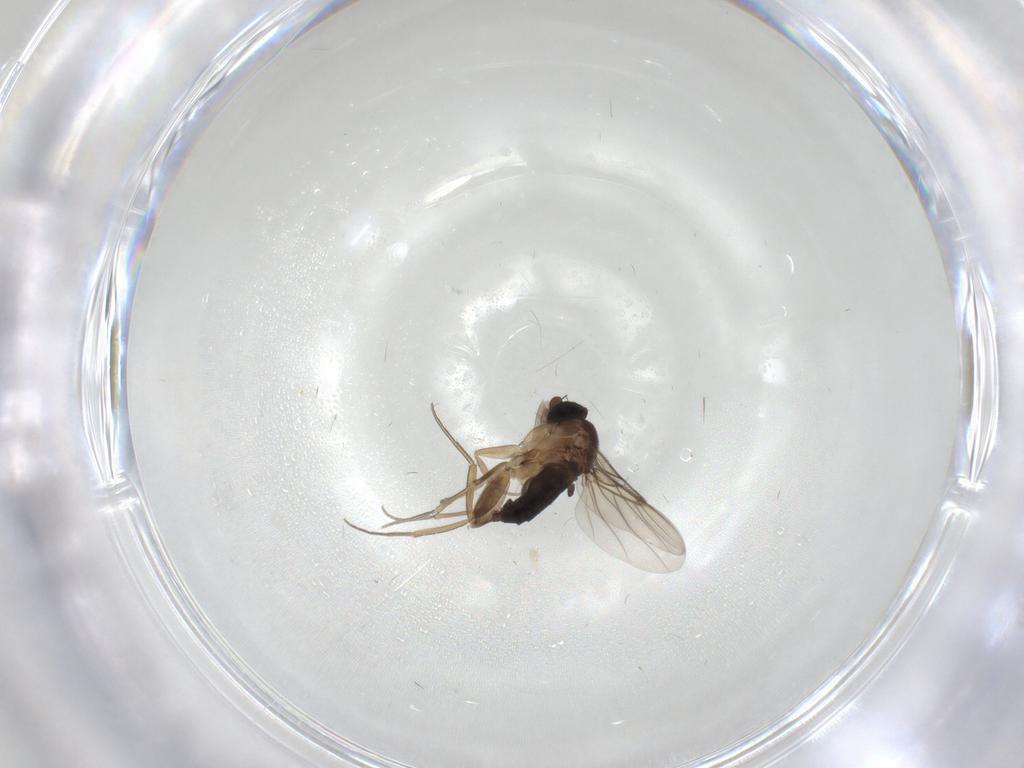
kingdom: Animalia
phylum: Arthropoda
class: Insecta
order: Diptera
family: Phoridae
